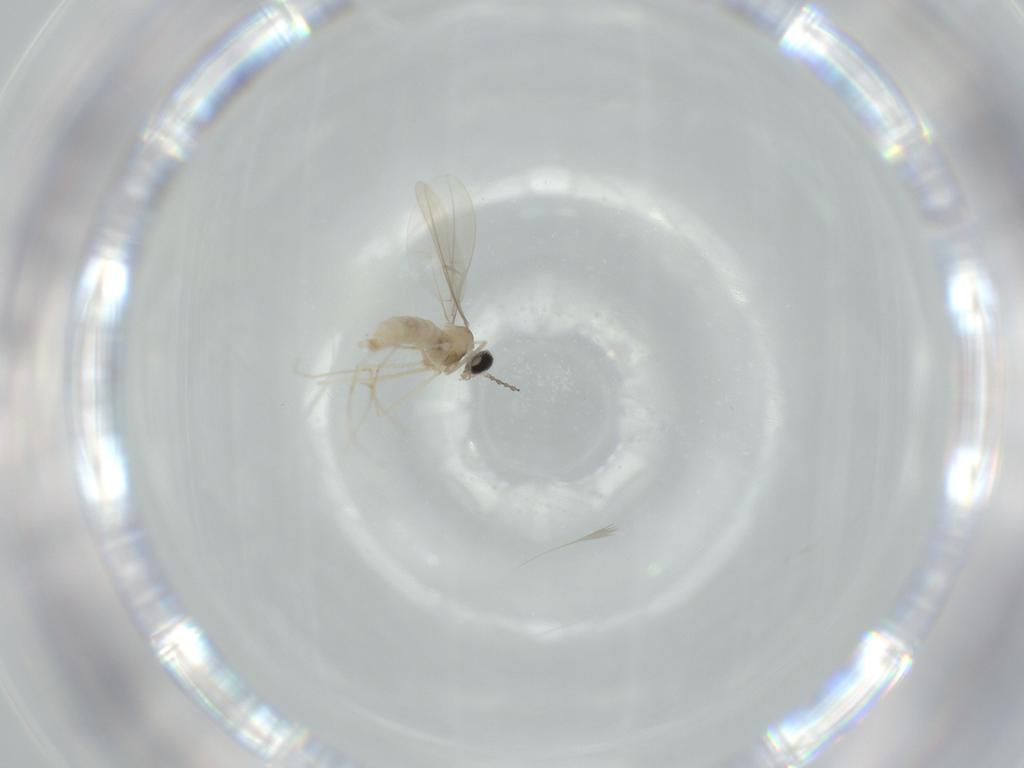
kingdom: Animalia
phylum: Arthropoda
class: Insecta
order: Diptera
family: Cecidomyiidae
